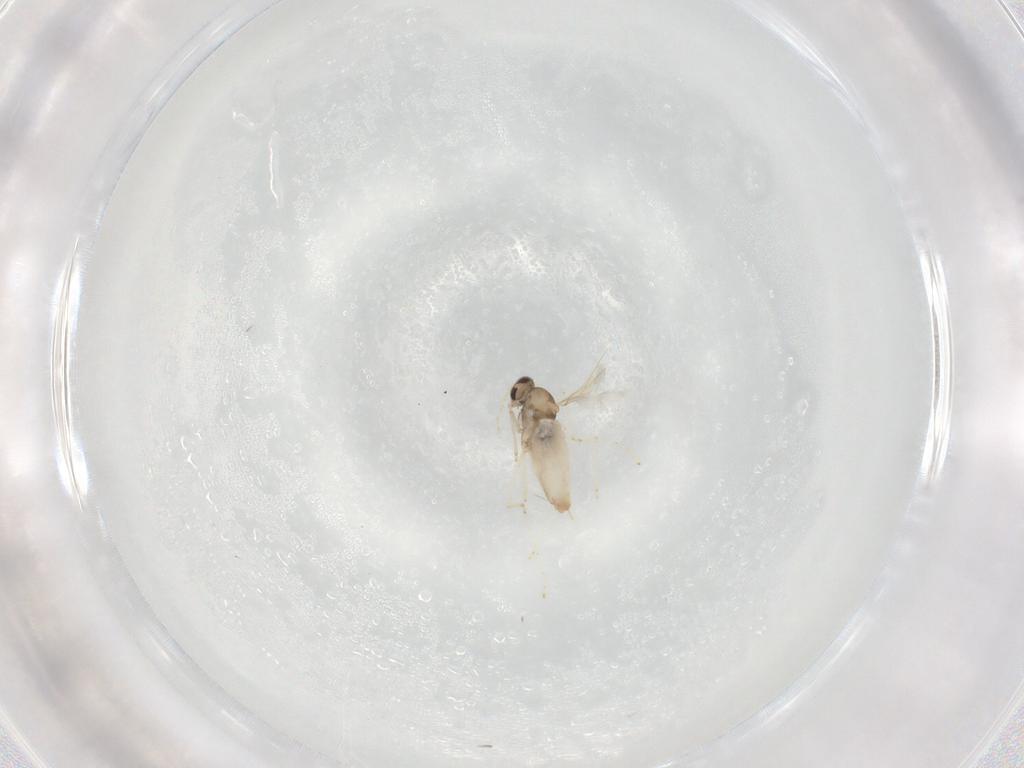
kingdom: Animalia
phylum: Arthropoda
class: Insecta
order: Diptera
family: Cecidomyiidae
